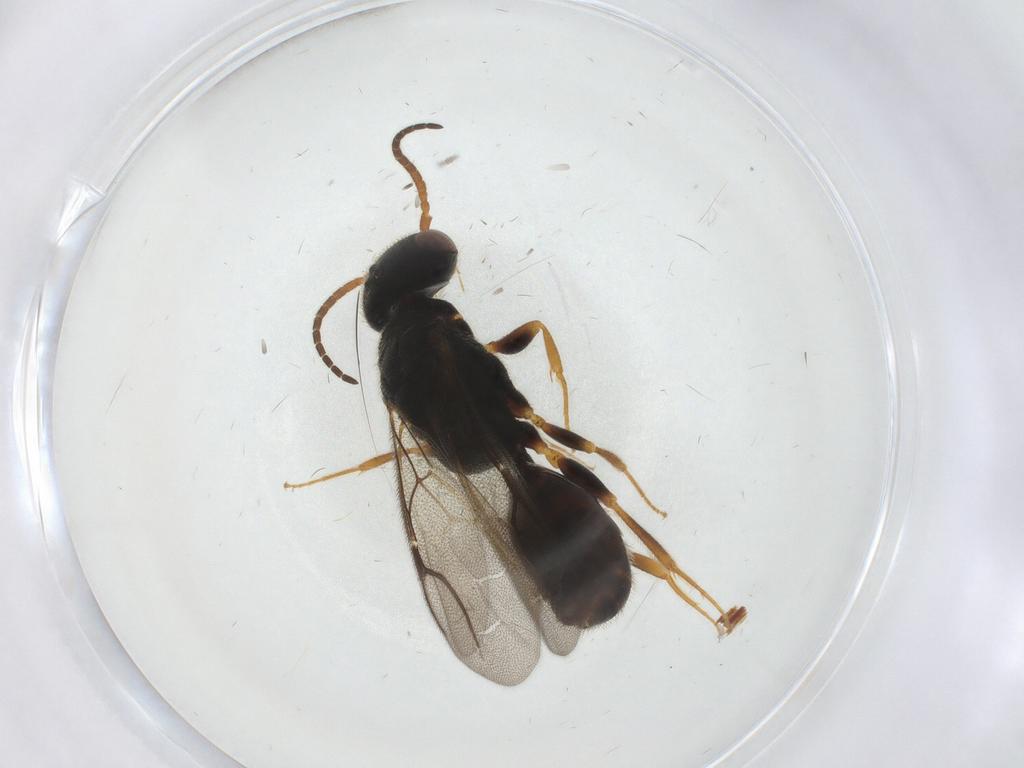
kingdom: Animalia
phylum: Arthropoda
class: Insecta
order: Hymenoptera
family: Bethylidae
